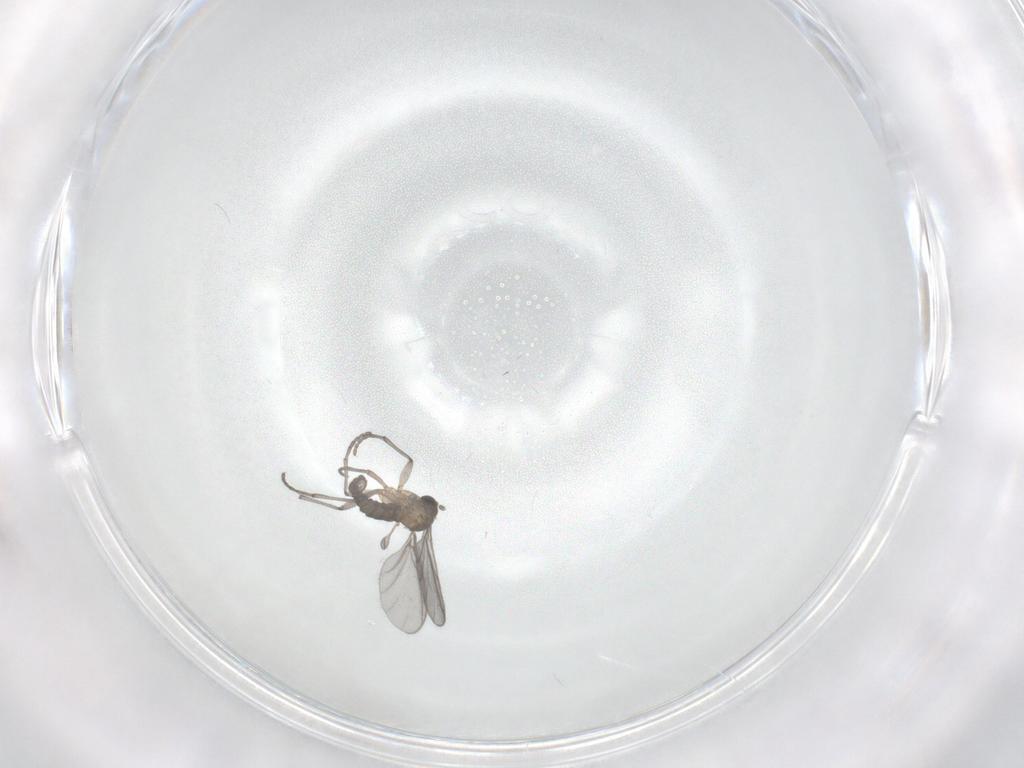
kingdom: Animalia
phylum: Arthropoda
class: Insecta
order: Diptera
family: Sciaridae
